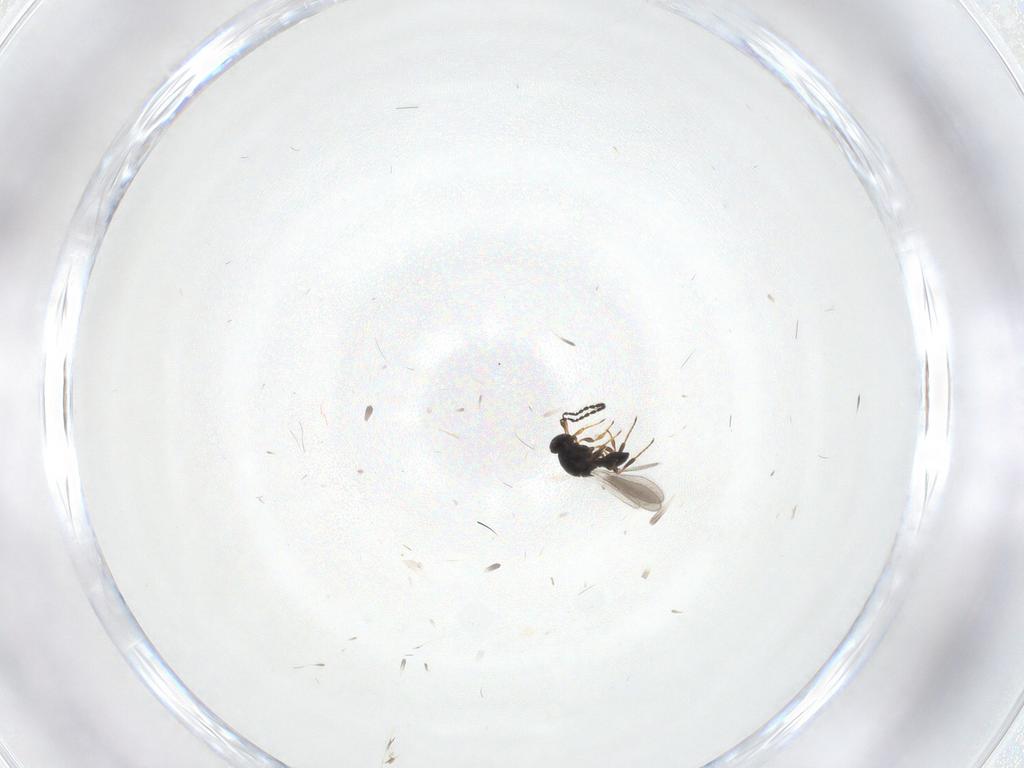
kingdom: Animalia
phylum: Arthropoda
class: Insecta
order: Hymenoptera
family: Platygastridae
